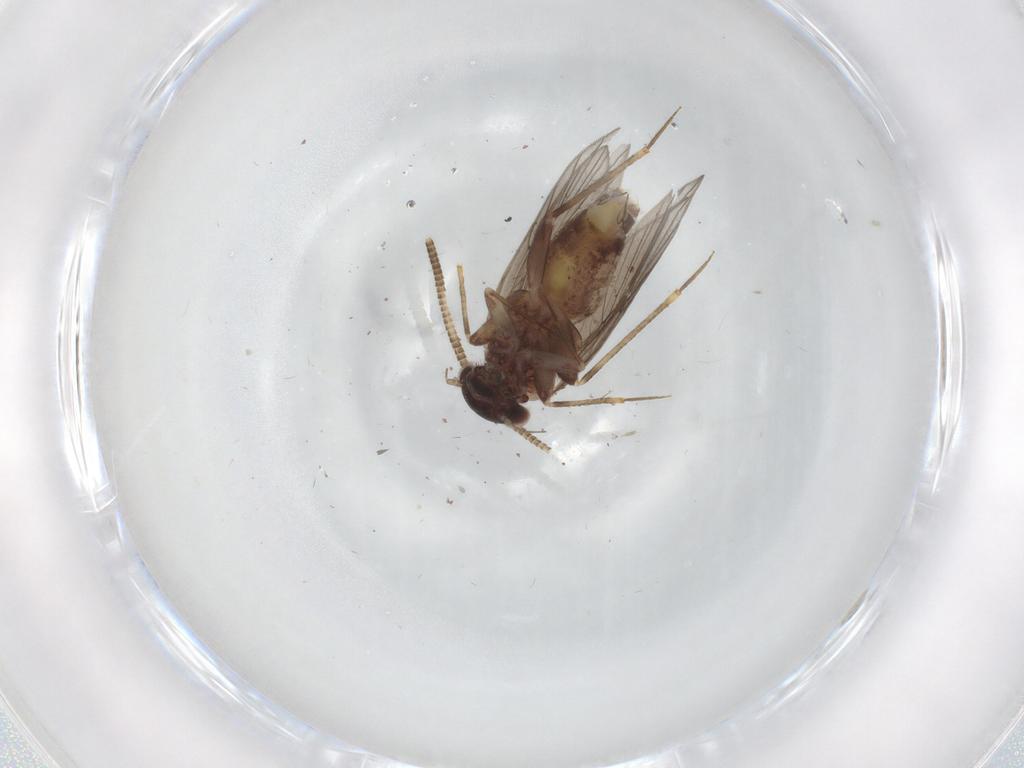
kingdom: Animalia
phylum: Arthropoda
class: Insecta
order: Psocodea
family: Lepidopsocidae
